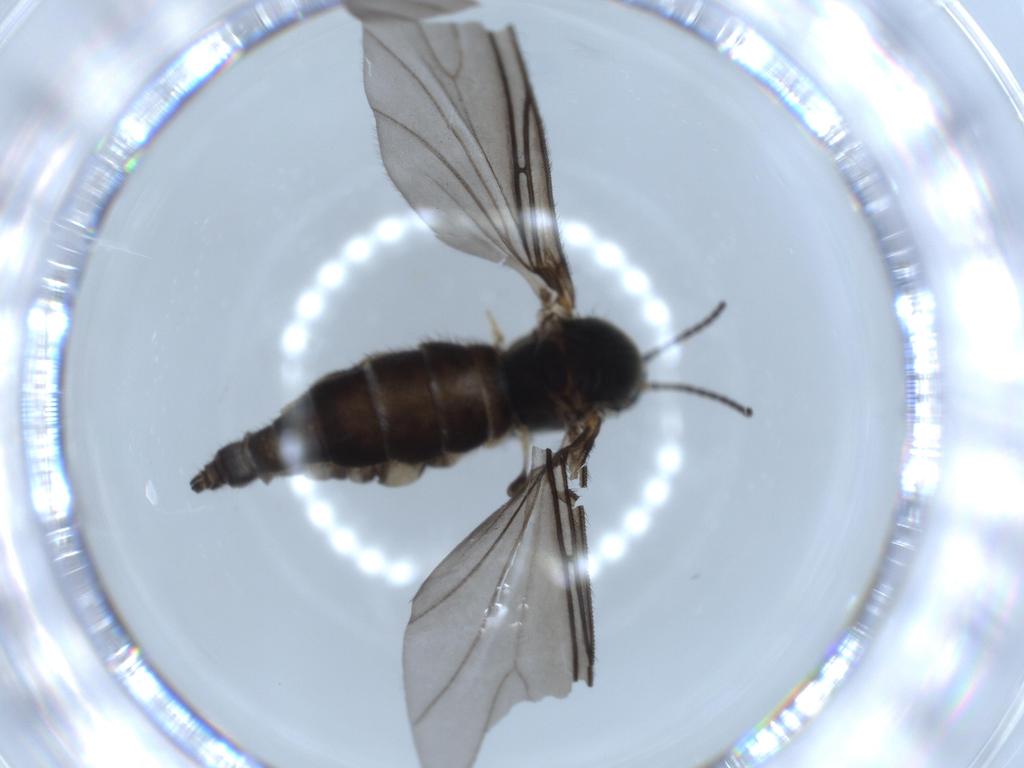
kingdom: Animalia
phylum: Arthropoda
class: Insecta
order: Diptera
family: Sciaridae
